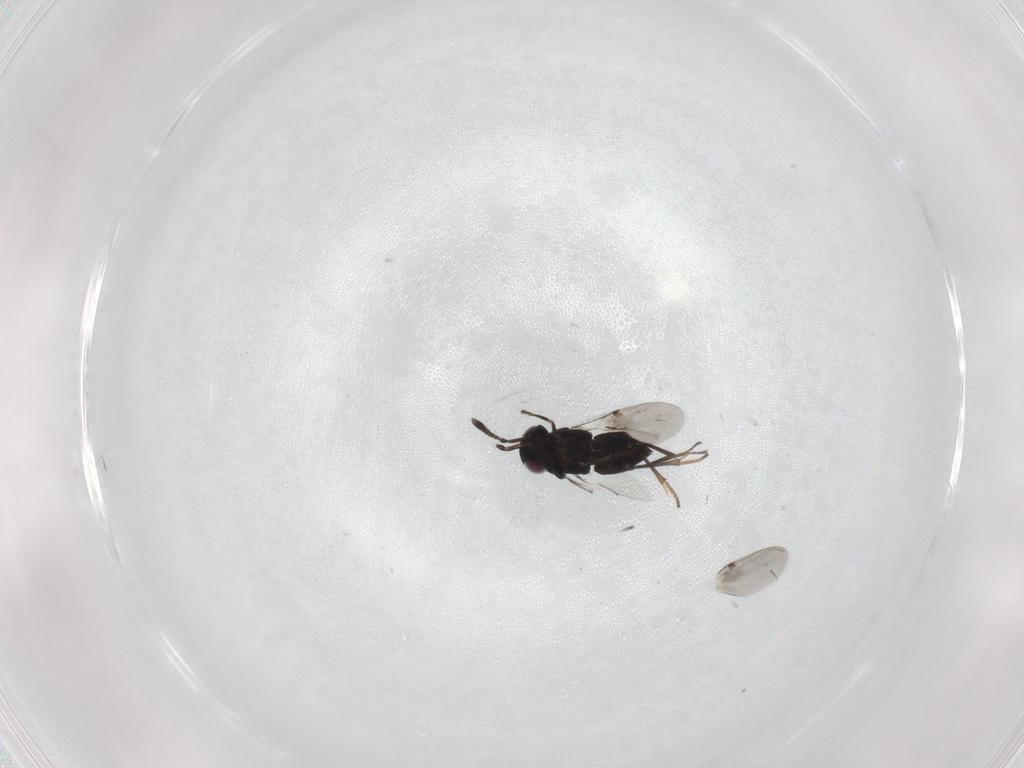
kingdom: Animalia
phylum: Arthropoda
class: Insecta
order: Hymenoptera
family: Encyrtidae
